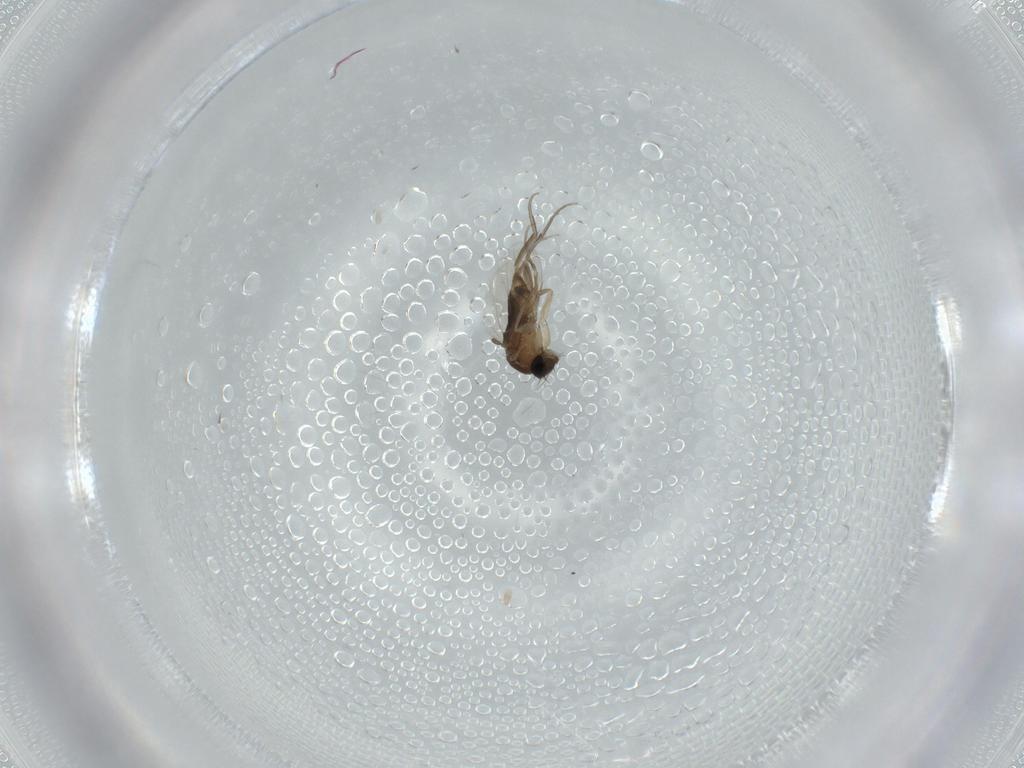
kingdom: Animalia
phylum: Arthropoda
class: Insecta
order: Diptera
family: Phoridae
